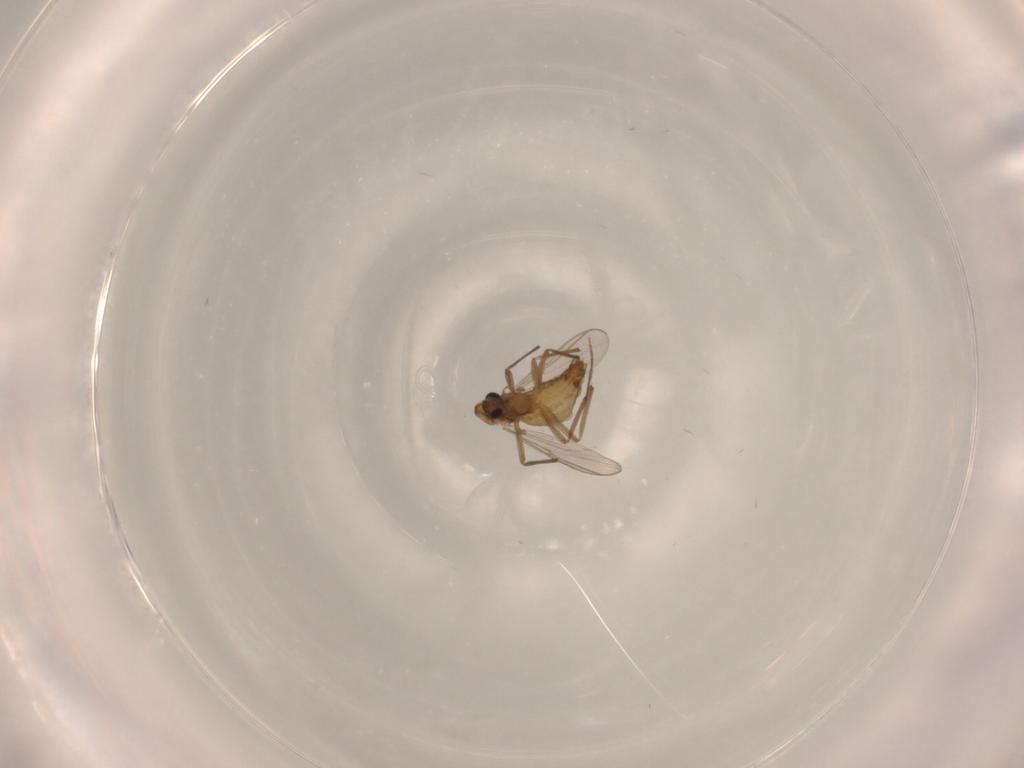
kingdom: Animalia
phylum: Arthropoda
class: Insecta
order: Diptera
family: Chironomidae
